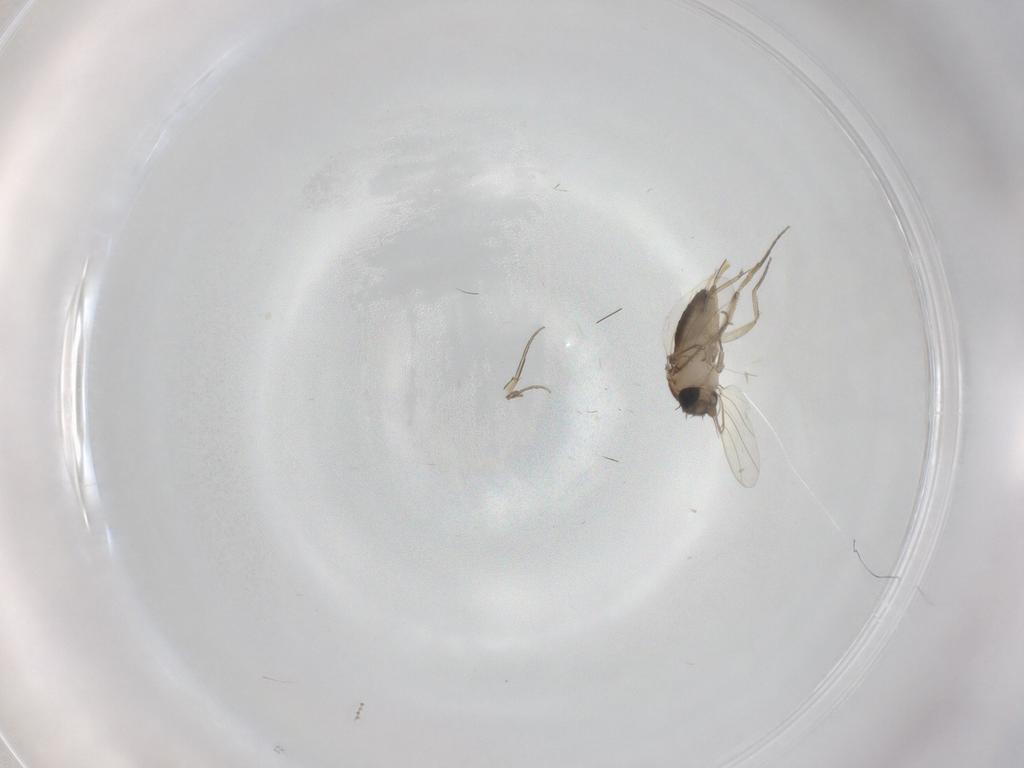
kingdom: Animalia
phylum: Arthropoda
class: Insecta
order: Diptera
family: Phoridae
